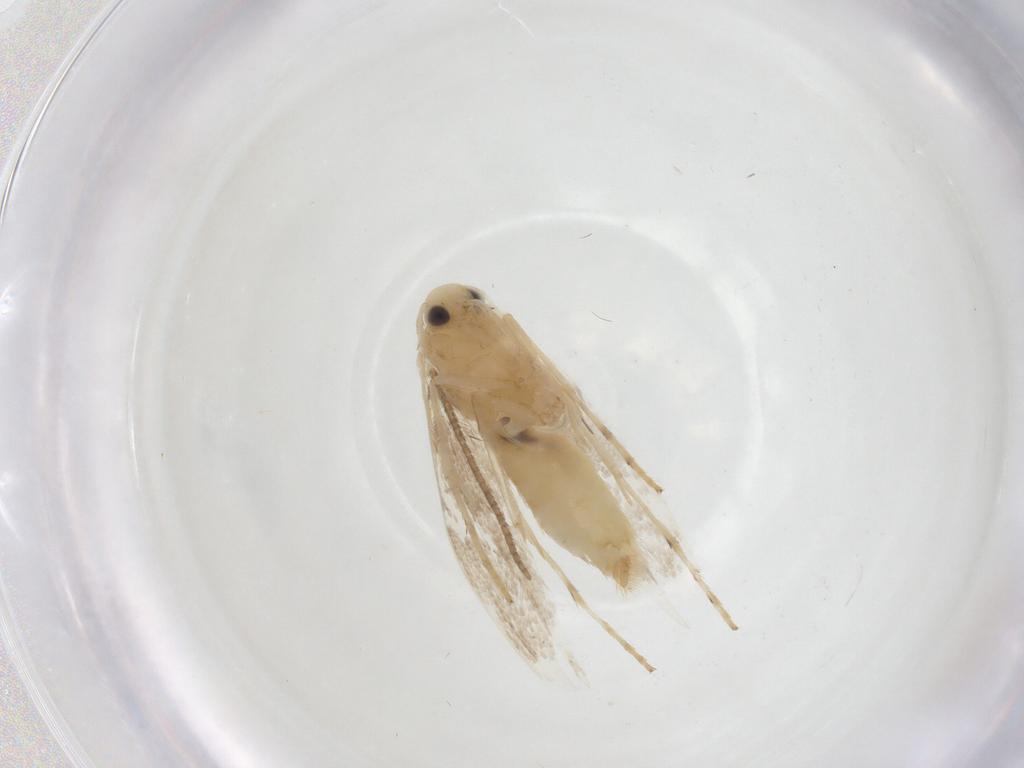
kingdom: Animalia
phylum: Arthropoda
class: Insecta
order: Lepidoptera
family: Gracillariidae
